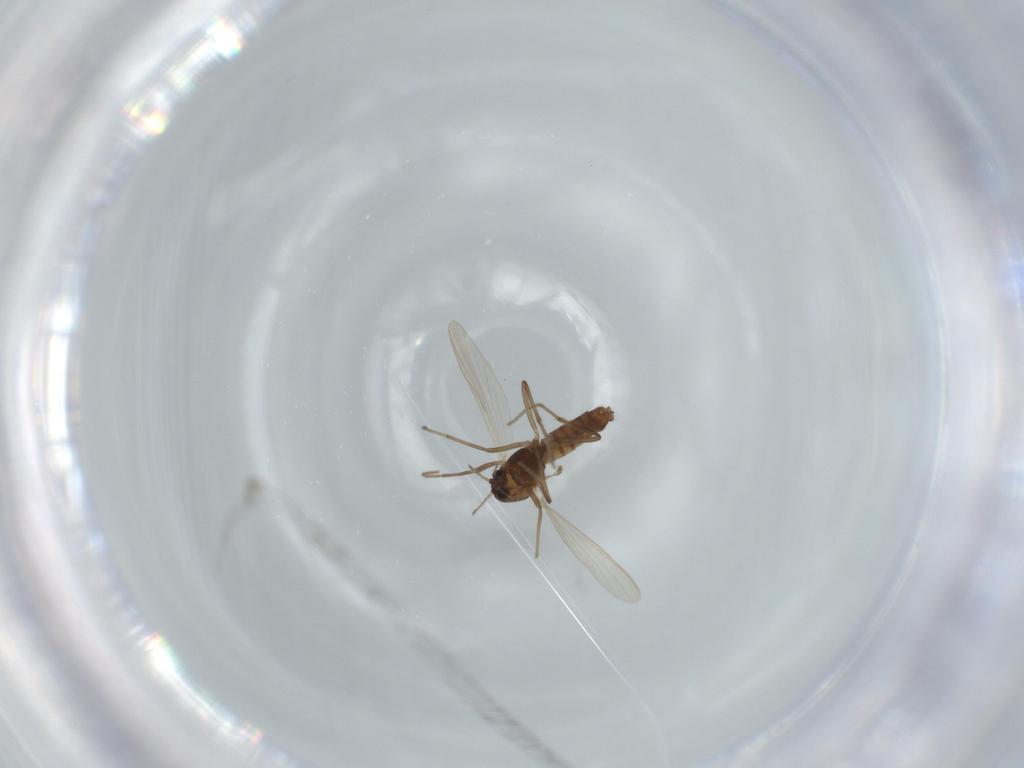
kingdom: Animalia
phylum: Arthropoda
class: Insecta
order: Diptera
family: Chironomidae
